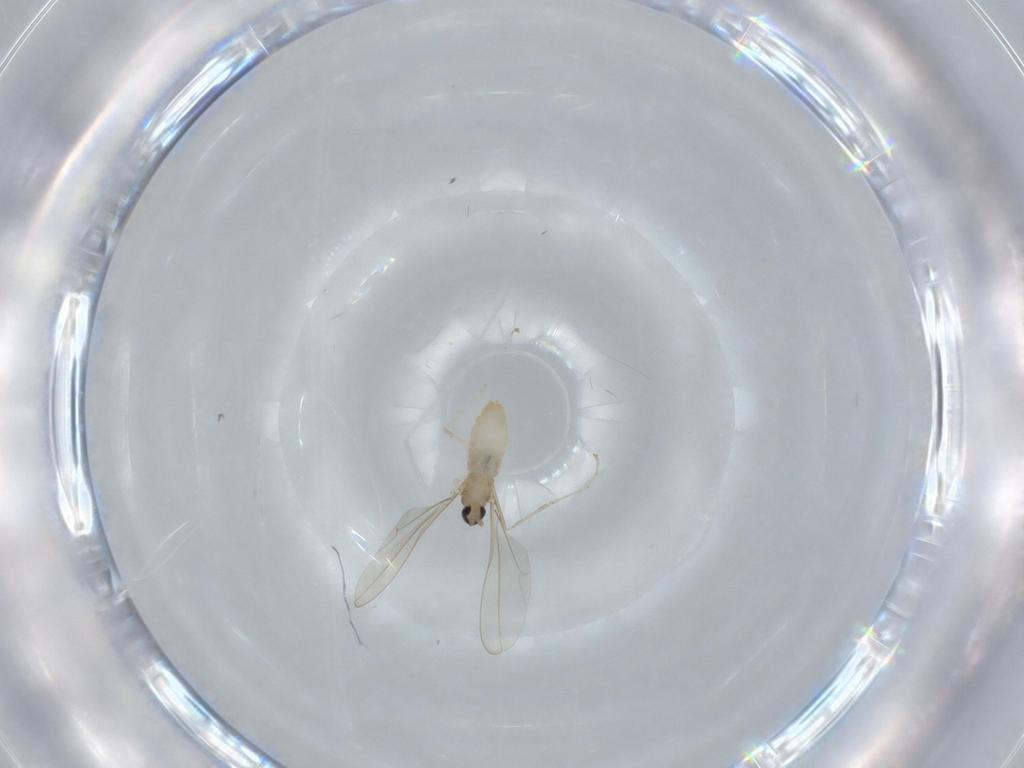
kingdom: Animalia
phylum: Arthropoda
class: Insecta
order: Diptera
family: Cecidomyiidae
